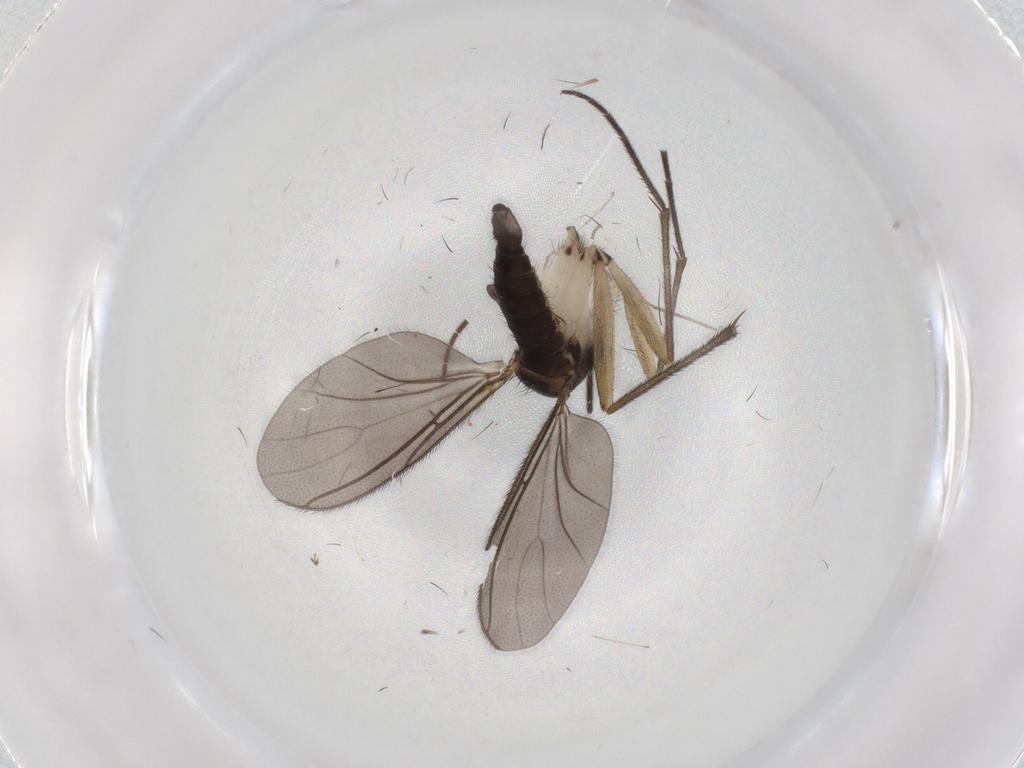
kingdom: Animalia
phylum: Arthropoda
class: Insecta
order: Diptera
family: Sciaridae
